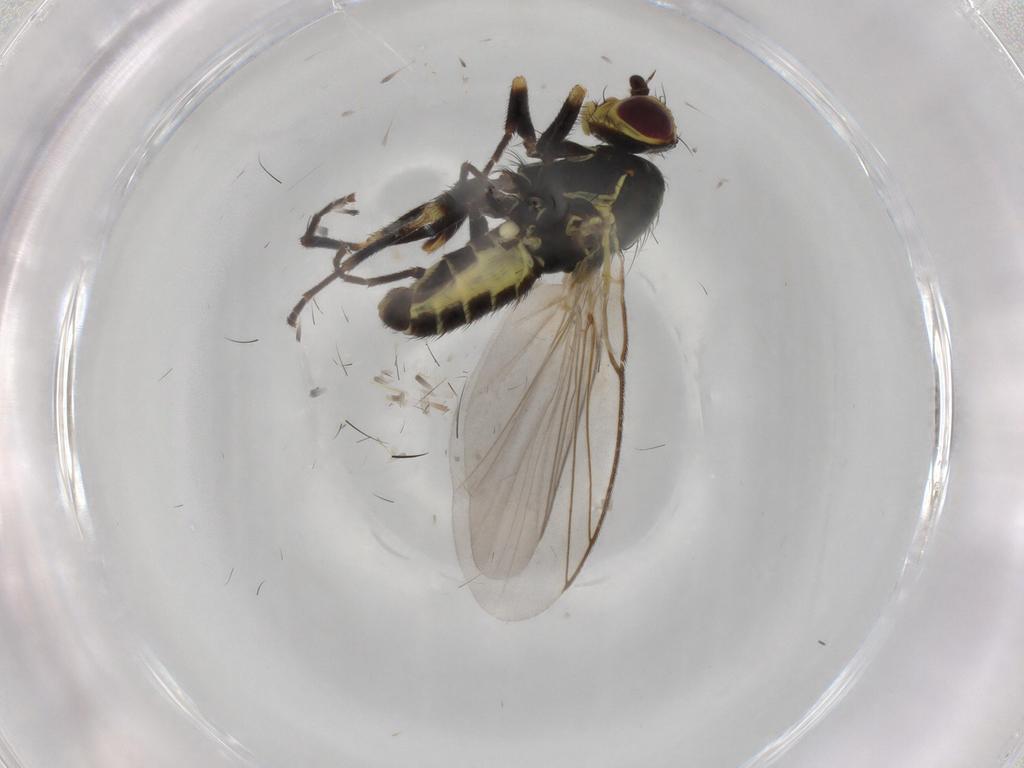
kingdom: Animalia
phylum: Arthropoda
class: Insecta
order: Diptera
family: Agromyzidae
